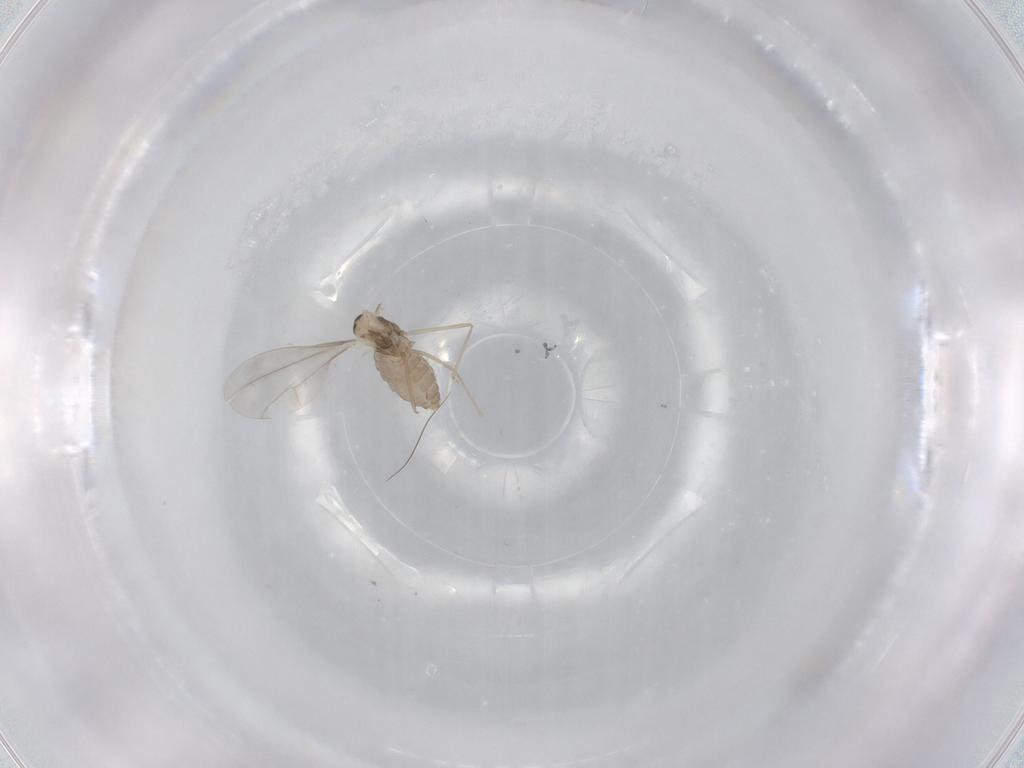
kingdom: Animalia
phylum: Arthropoda
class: Insecta
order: Diptera
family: Cecidomyiidae
